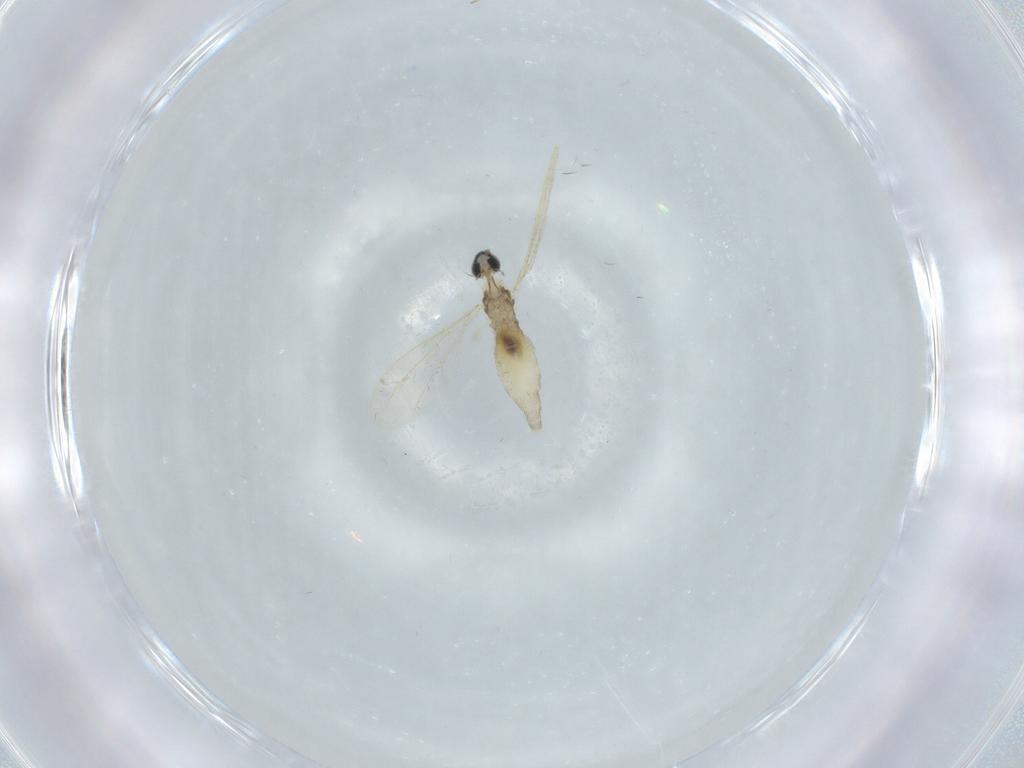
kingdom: Animalia
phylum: Arthropoda
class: Insecta
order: Diptera
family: Cecidomyiidae
